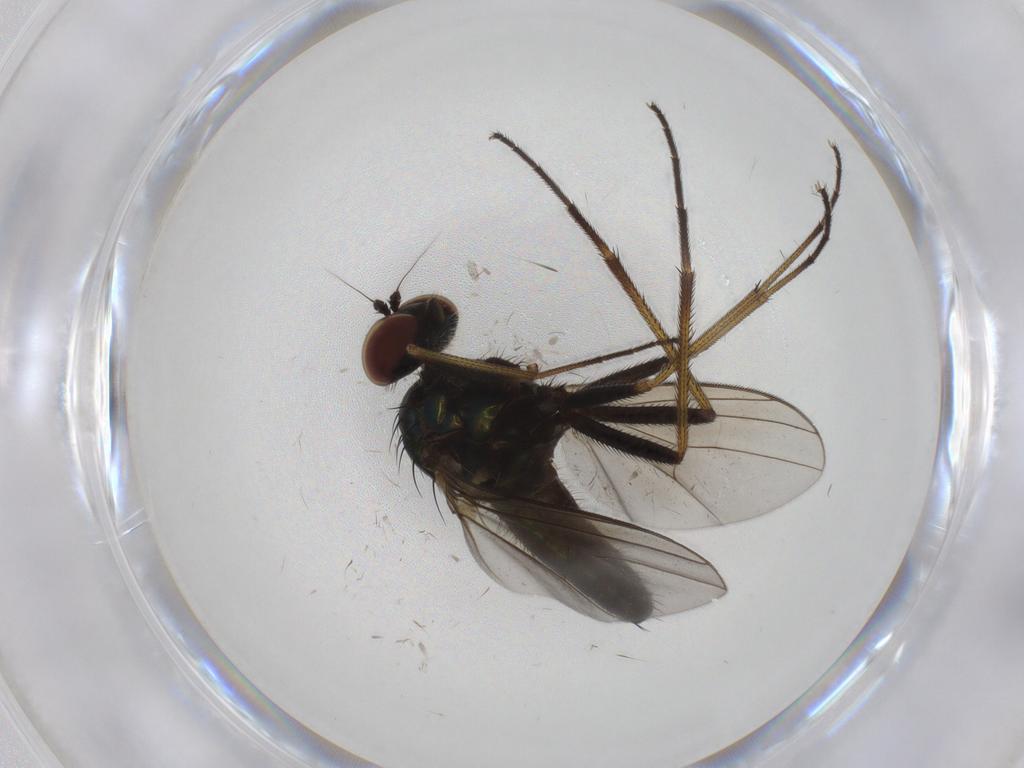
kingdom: Animalia
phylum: Arthropoda
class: Insecta
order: Diptera
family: Dolichopodidae
